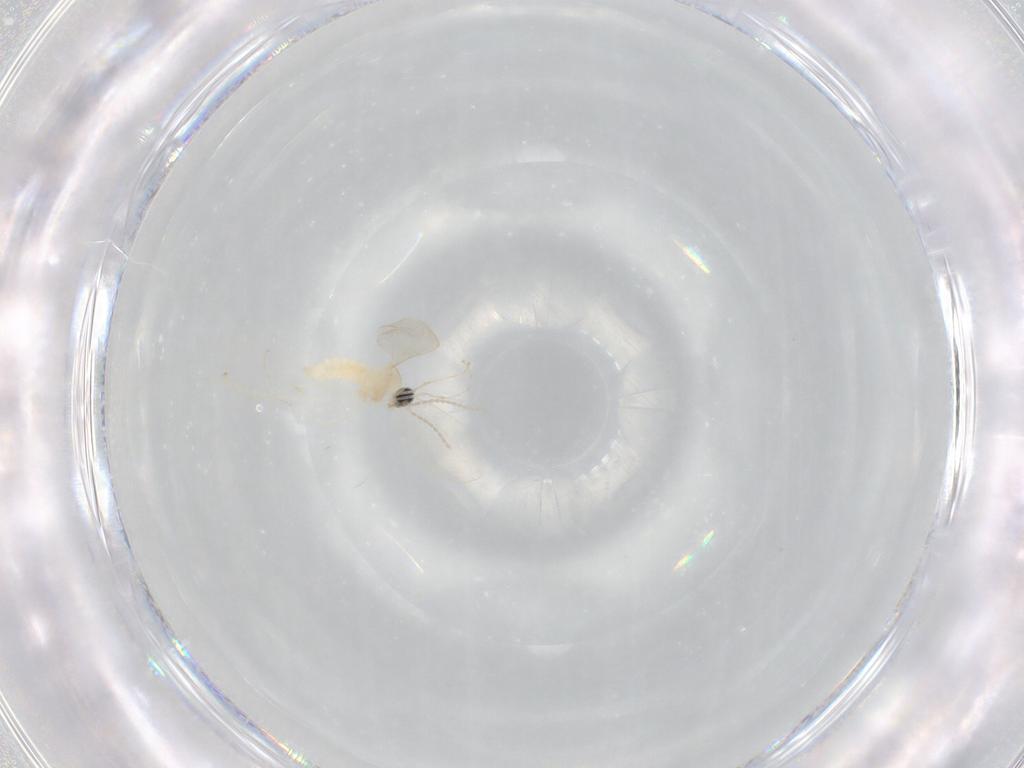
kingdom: Animalia
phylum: Arthropoda
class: Insecta
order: Diptera
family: Cecidomyiidae
